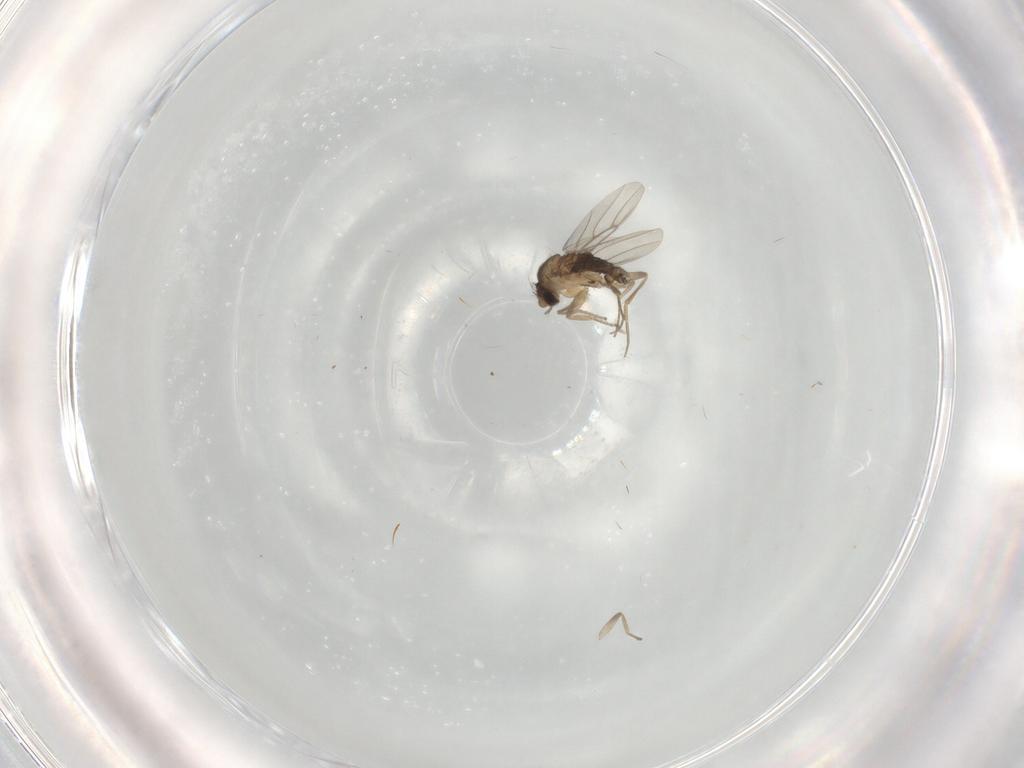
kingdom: Animalia
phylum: Arthropoda
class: Insecta
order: Diptera
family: Phoridae
